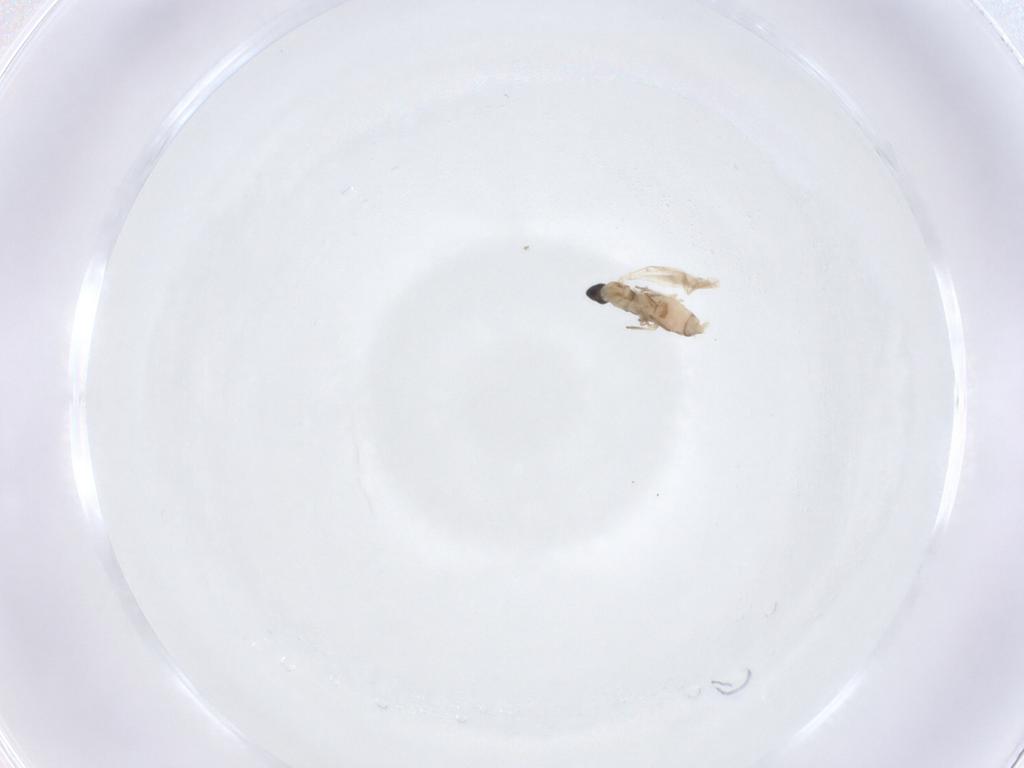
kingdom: Animalia
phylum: Arthropoda
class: Insecta
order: Diptera
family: Cecidomyiidae
